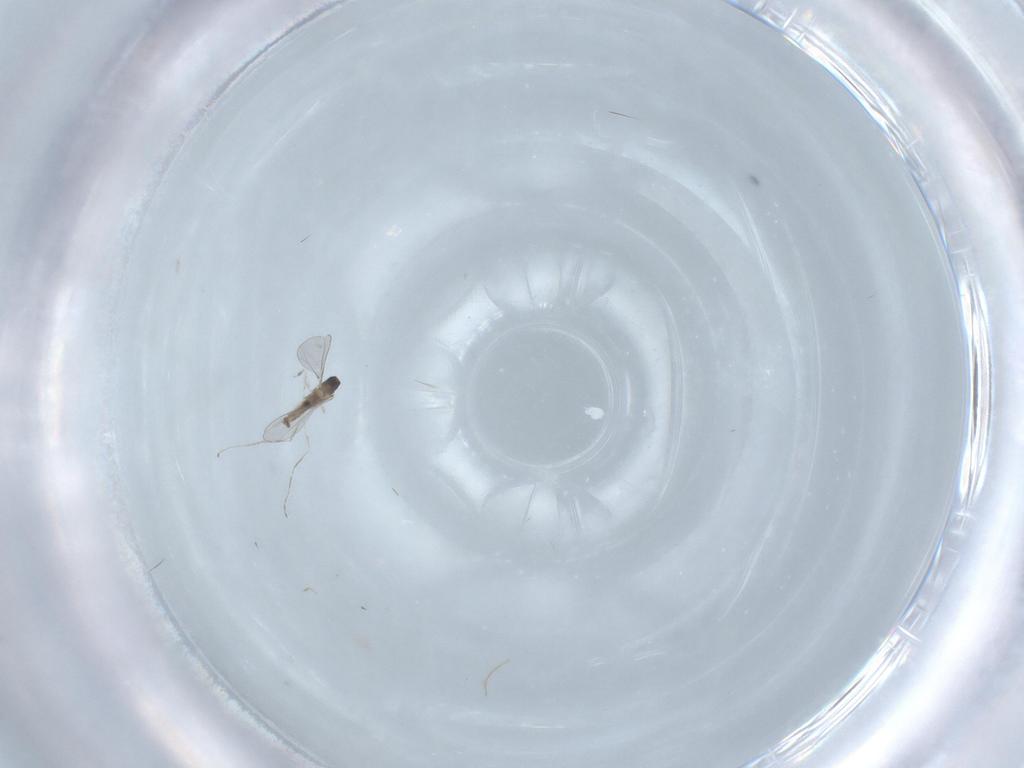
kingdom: Animalia
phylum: Arthropoda
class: Insecta
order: Diptera
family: Cecidomyiidae
